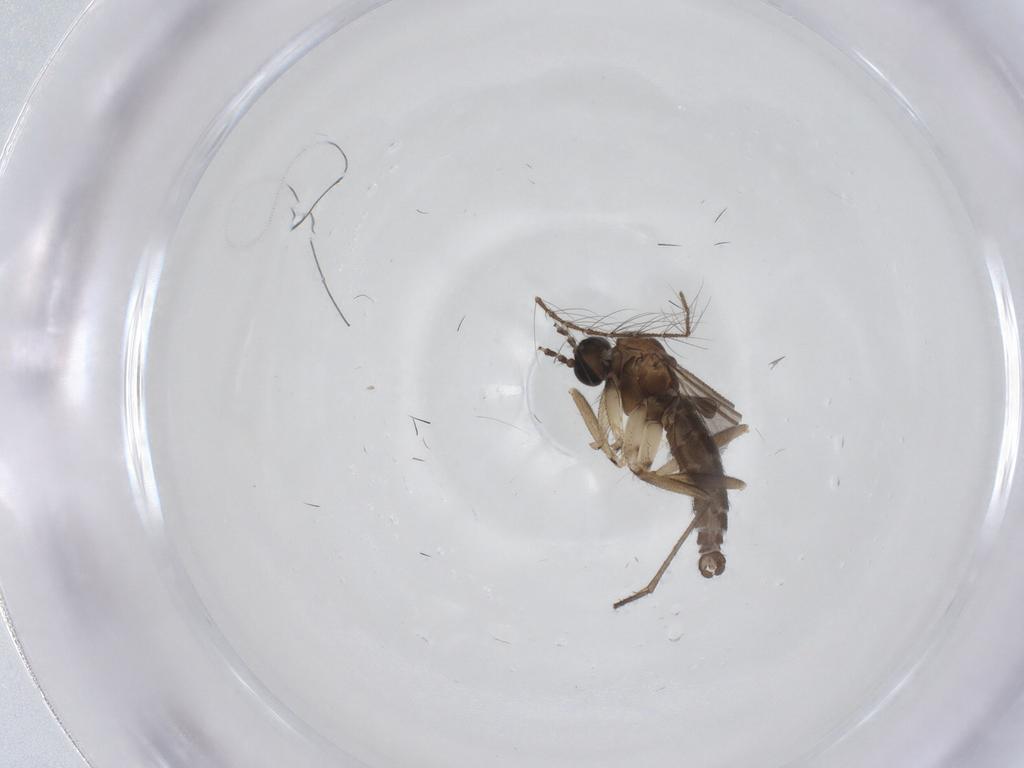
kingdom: Animalia
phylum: Arthropoda
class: Insecta
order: Diptera
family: Sciaridae
